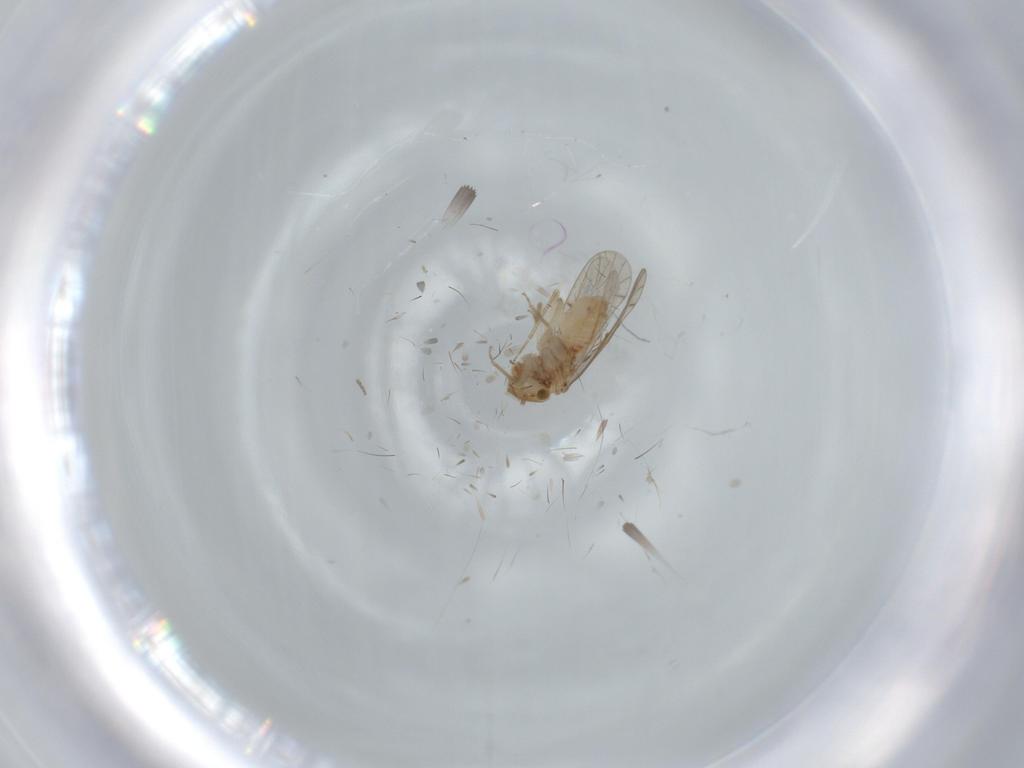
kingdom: Animalia
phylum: Arthropoda
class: Insecta
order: Psocodea
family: Ectopsocidae
